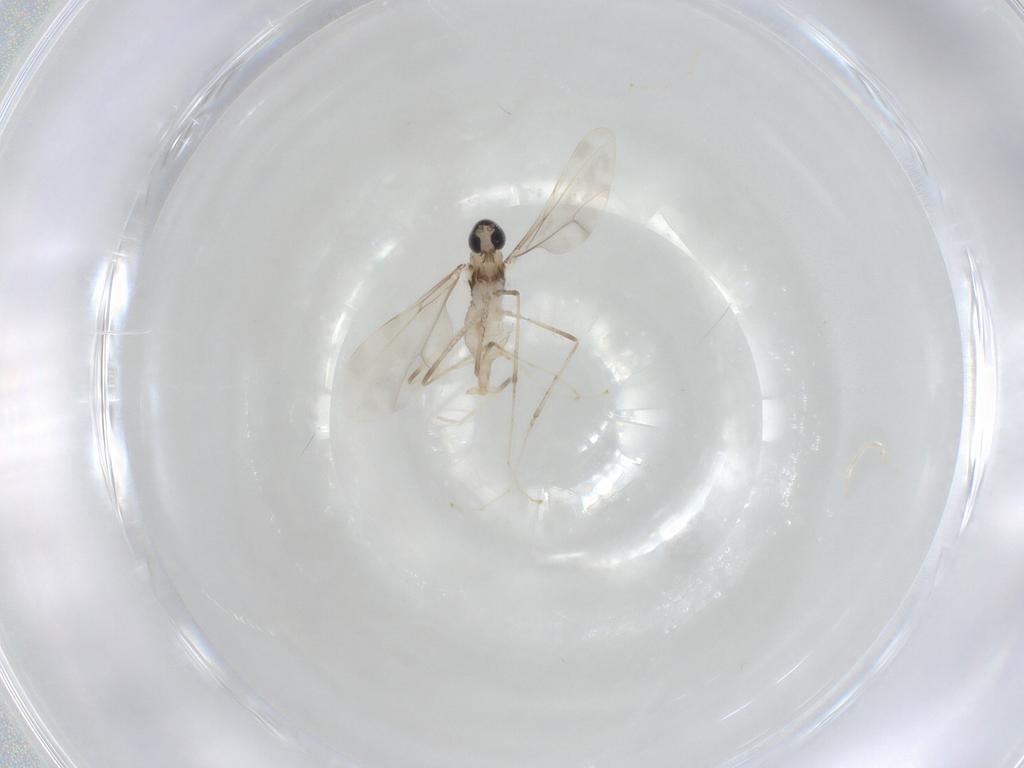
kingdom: Animalia
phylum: Arthropoda
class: Insecta
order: Diptera
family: Cecidomyiidae
